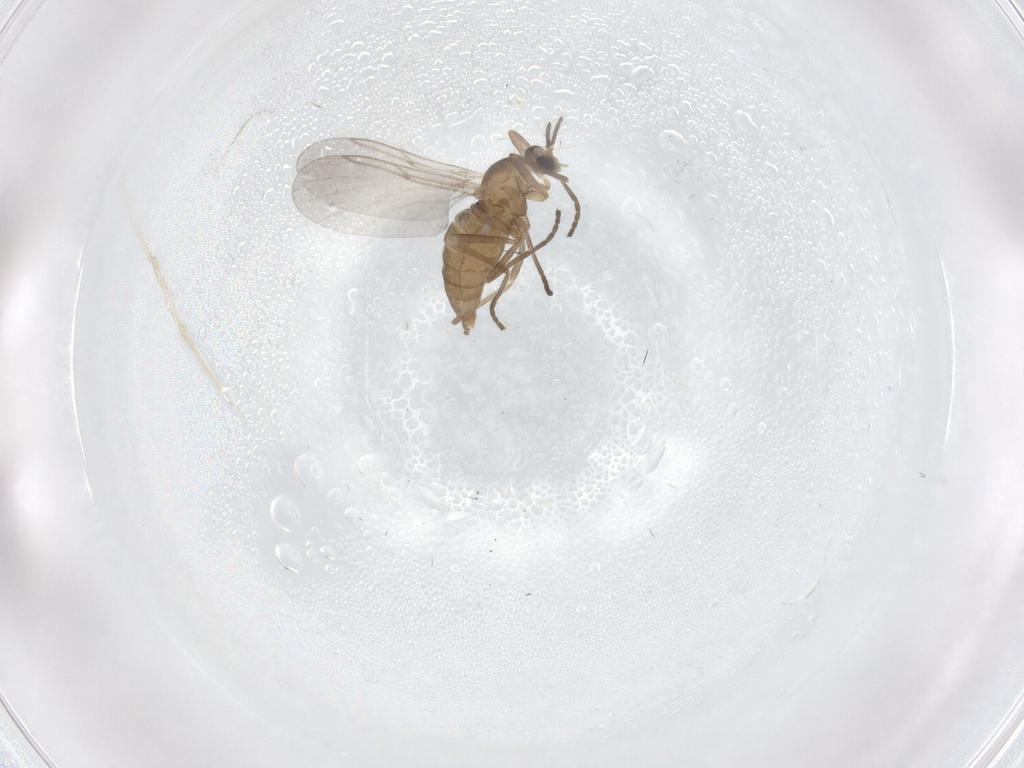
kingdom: Animalia
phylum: Arthropoda
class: Insecta
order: Diptera
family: Cecidomyiidae
